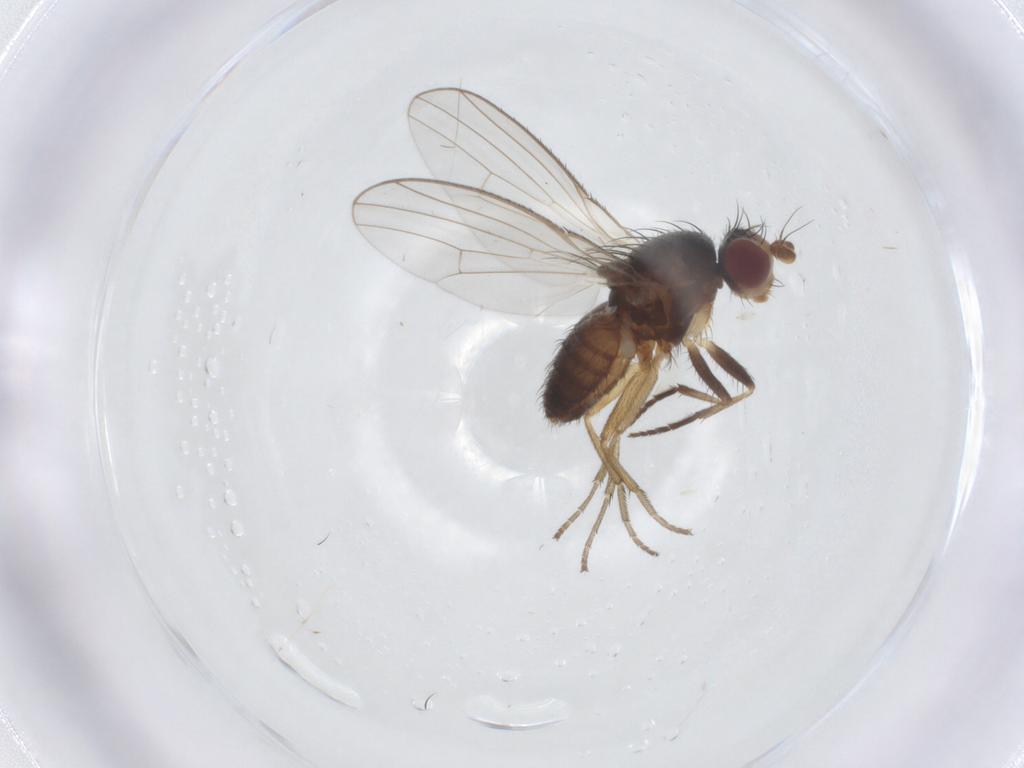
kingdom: Animalia
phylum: Arthropoda
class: Insecta
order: Diptera
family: Heleomyzidae
